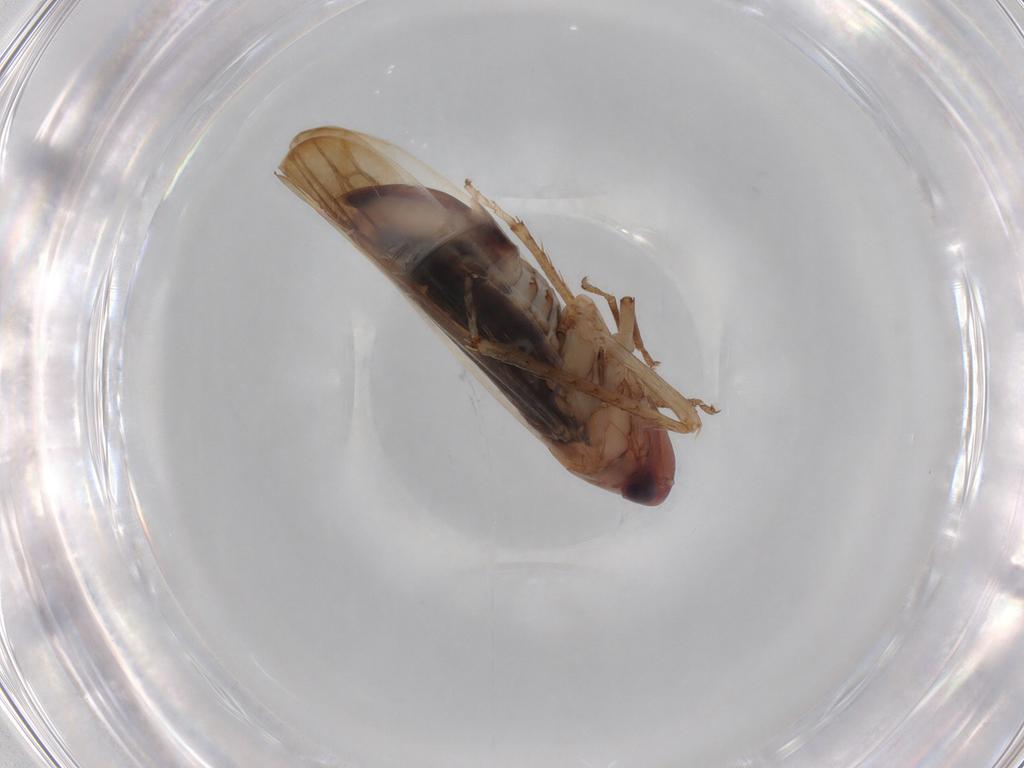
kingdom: Animalia
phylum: Arthropoda
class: Insecta
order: Hemiptera
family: Cicadellidae
